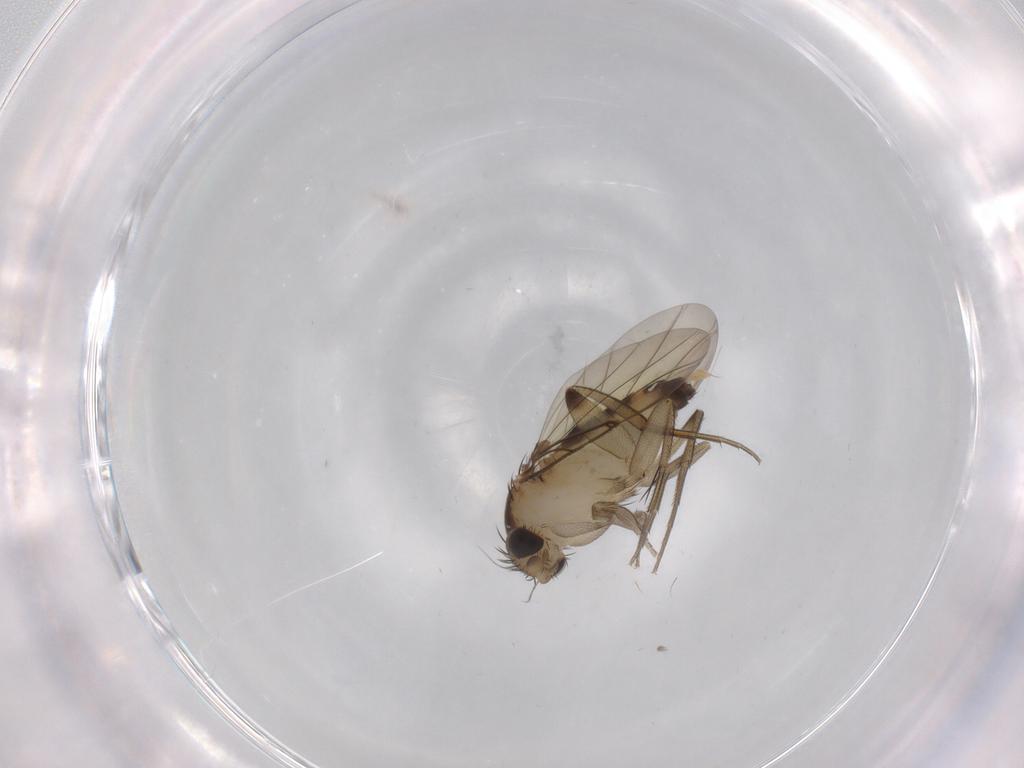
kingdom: Animalia
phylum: Arthropoda
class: Insecta
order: Diptera
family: Phoridae
